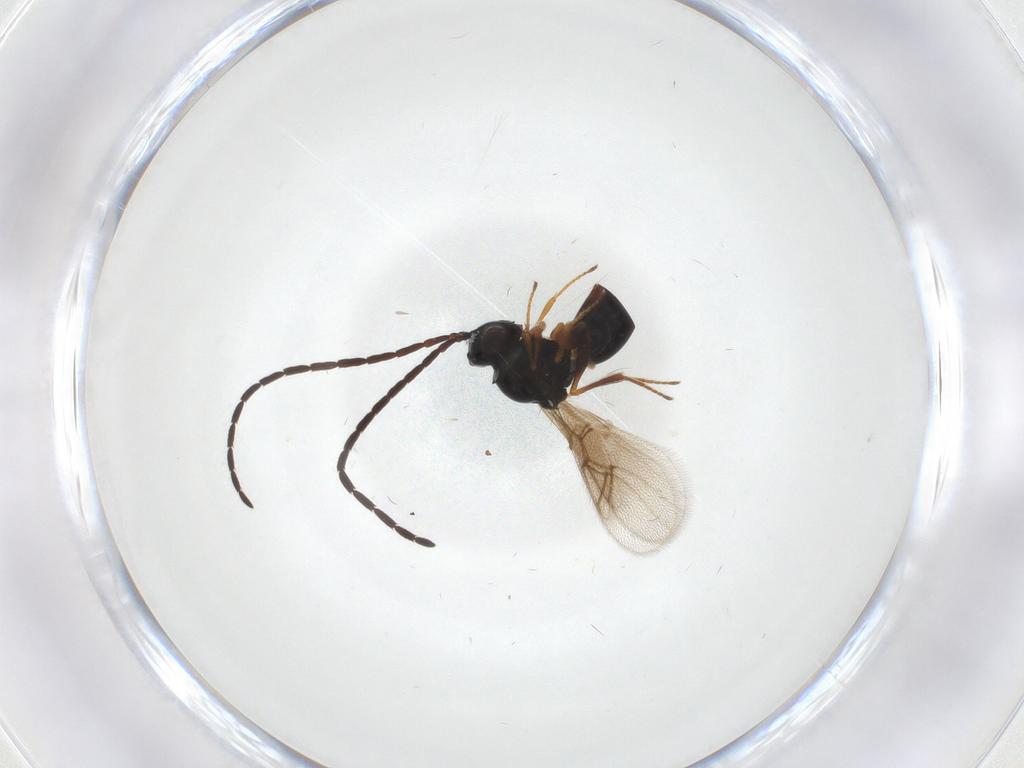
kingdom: Animalia
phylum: Arthropoda
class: Insecta
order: Hymenoptera
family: Figitidae
